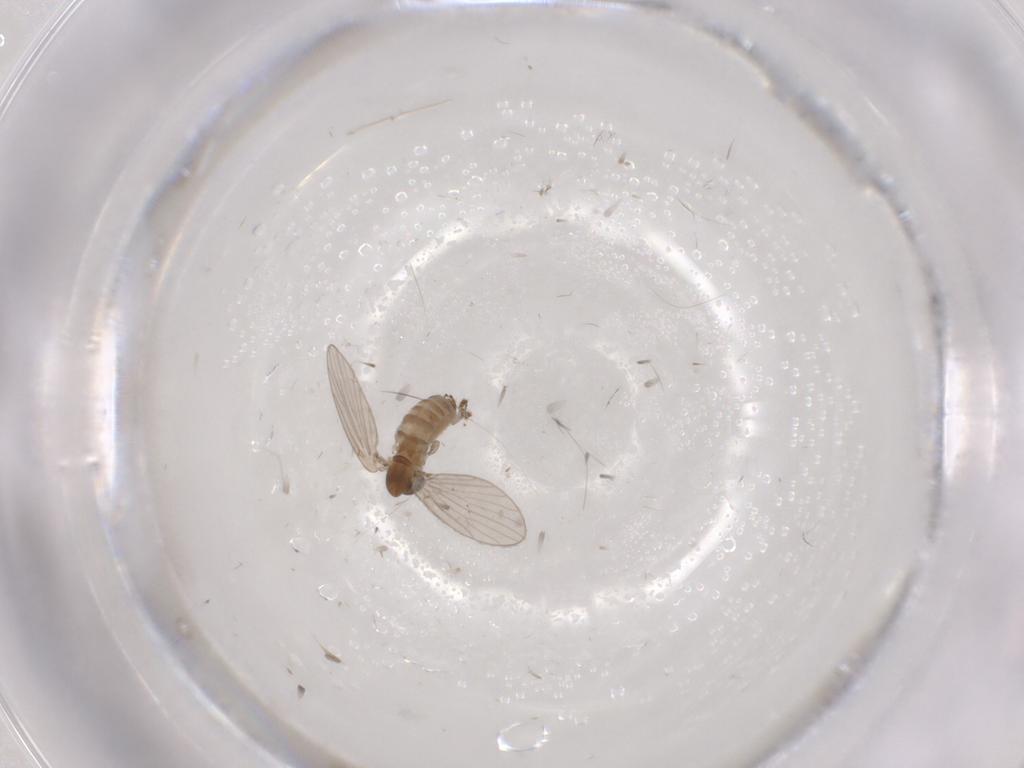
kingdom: Animalia
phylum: Arthropoda
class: Insecta
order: Diptera
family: Psychodidae
